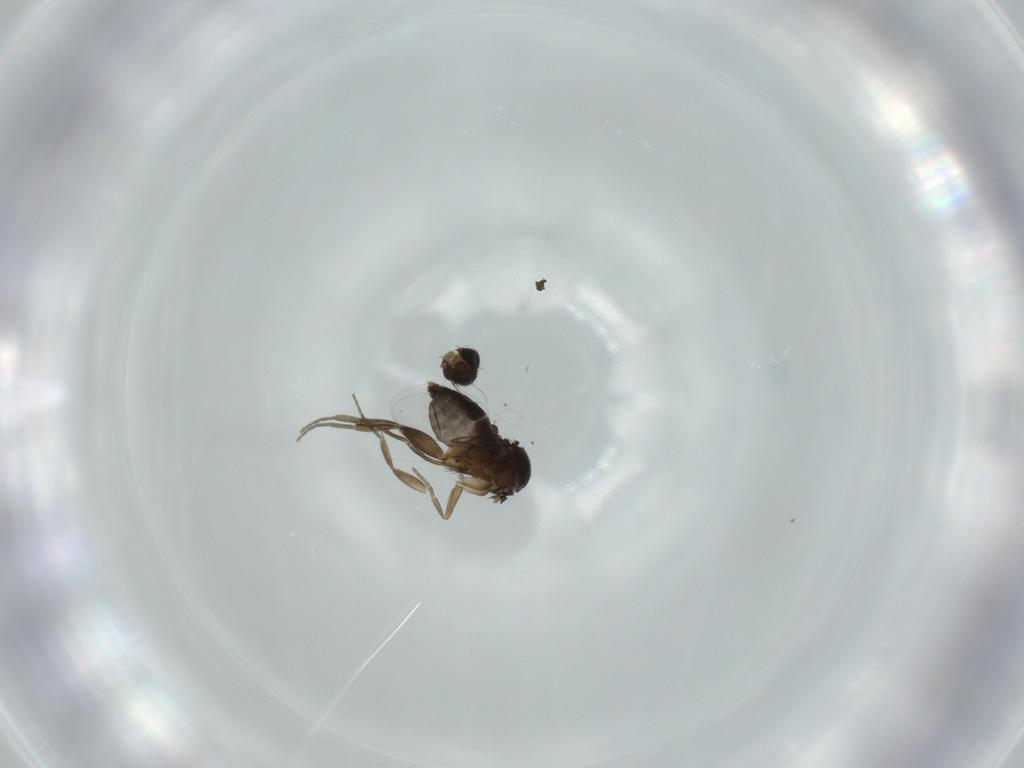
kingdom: Animalia
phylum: Arthropoda
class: Insecta
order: Diptera
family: Phoridae
